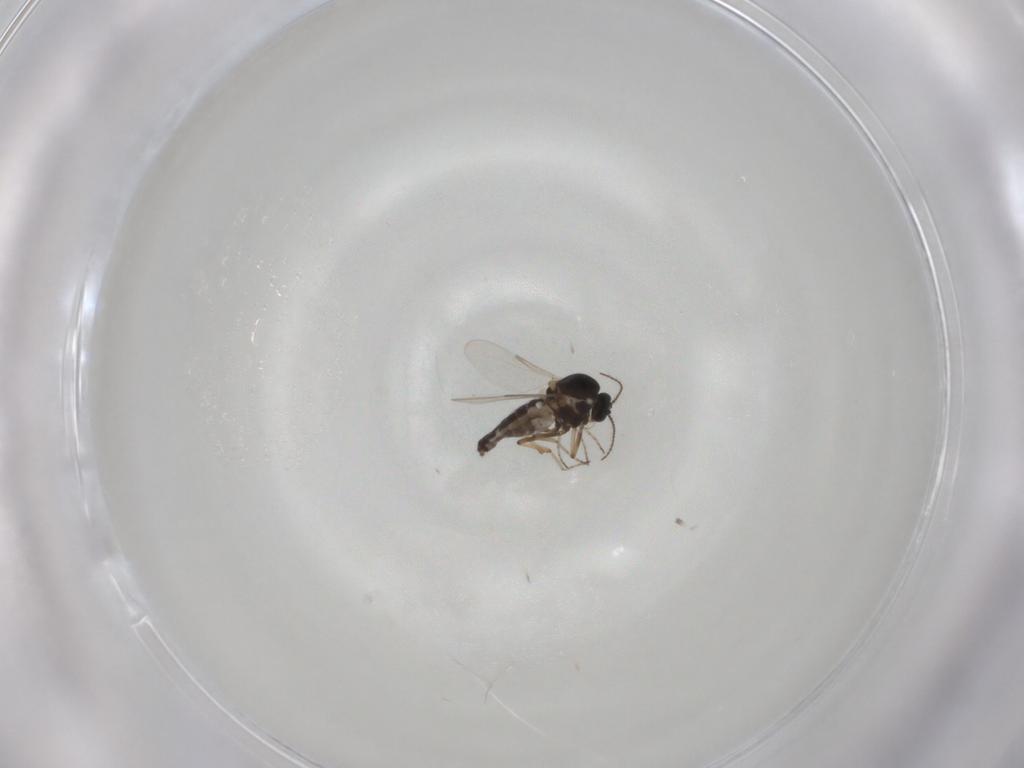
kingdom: Animalia
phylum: Arthropoda
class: Insecta
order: Diptera
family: Ceratopogonidae
